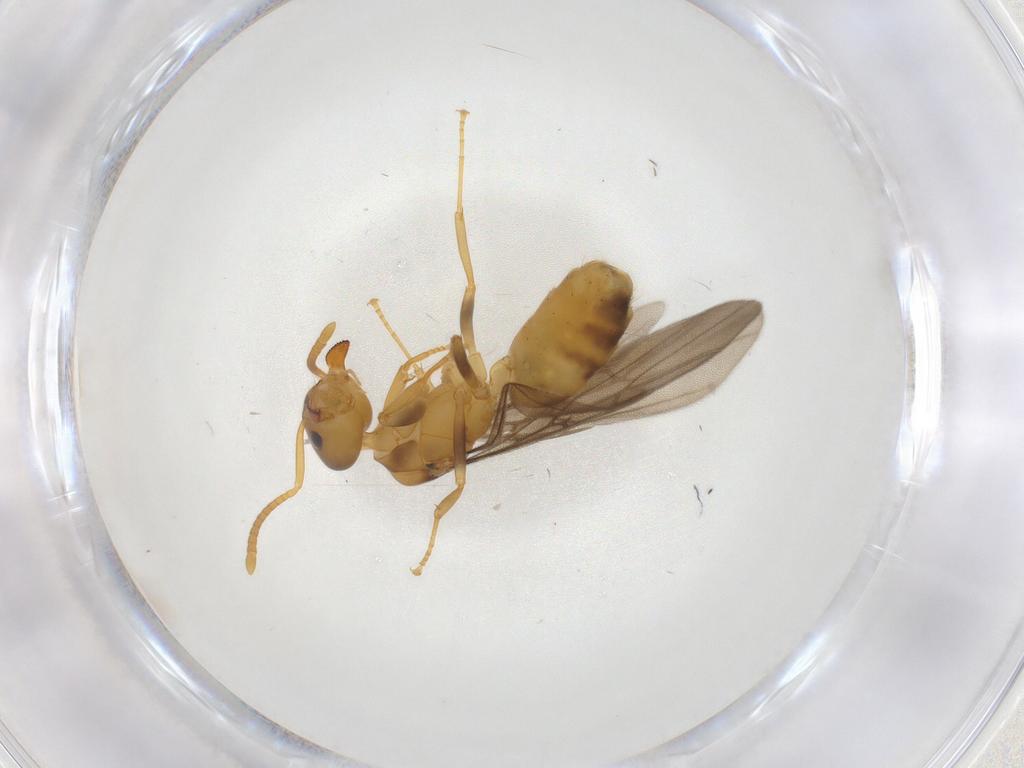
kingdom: Animalia
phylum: Arthropoda
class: Insecta
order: Hymenoptera
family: Formicidae
